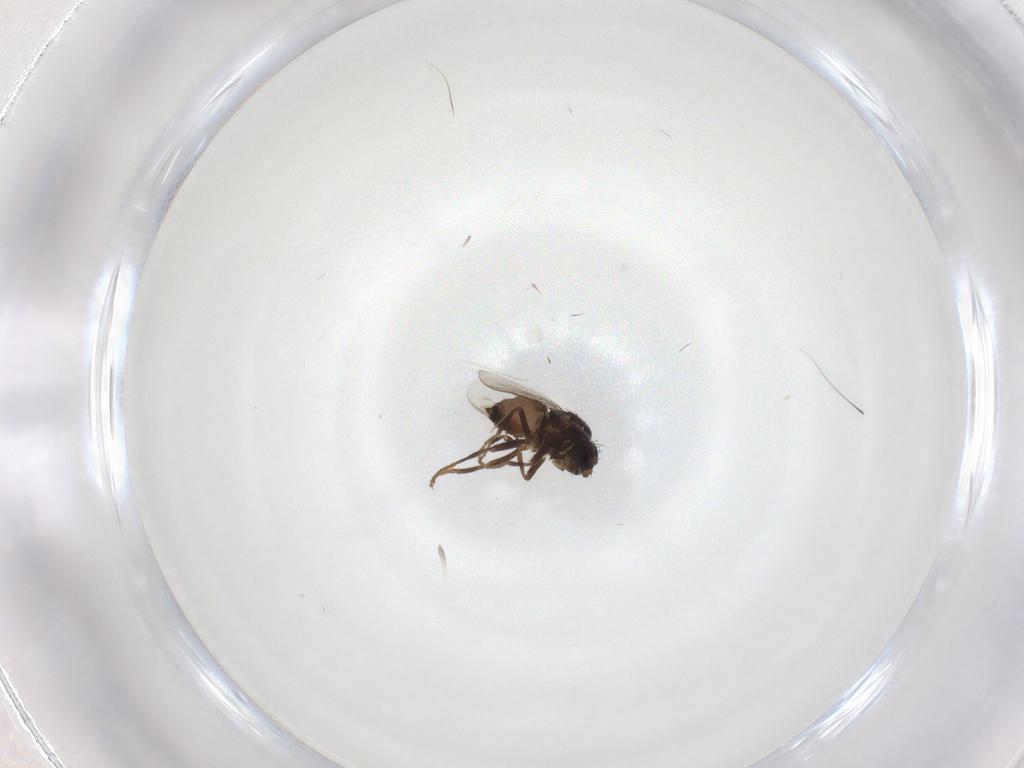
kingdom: Animalia
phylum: Arthropoda
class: Insecta
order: Diptera
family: Sphaeroceridae
